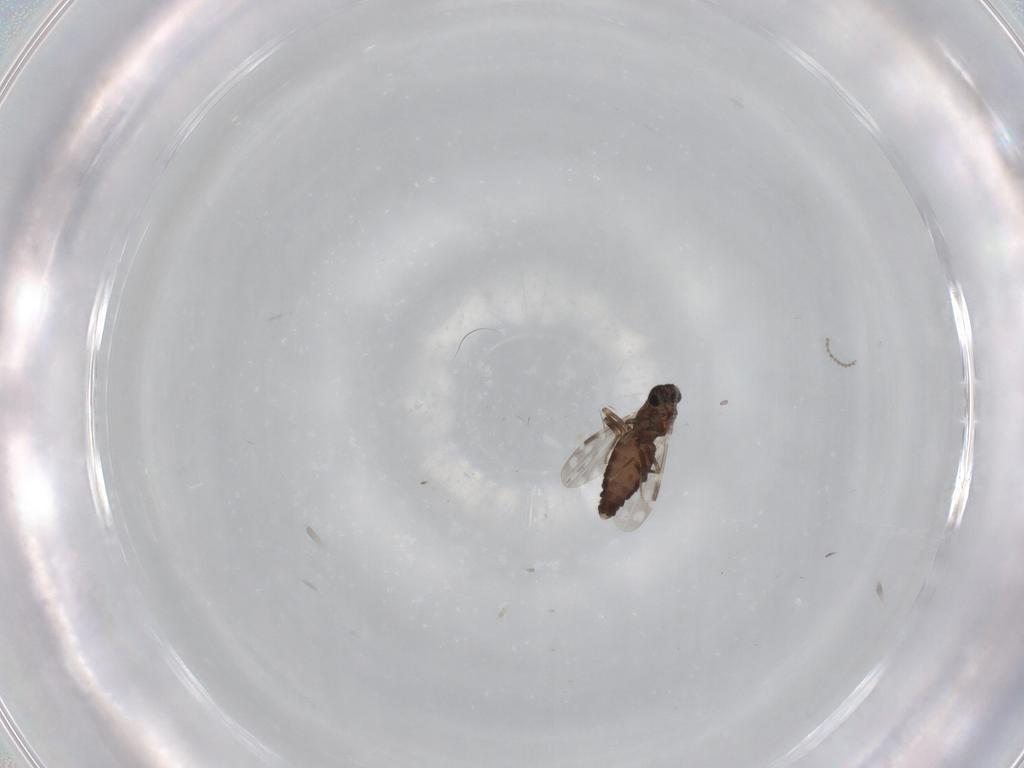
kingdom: Animalia
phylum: Arthropoda
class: Insecta
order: Diptera
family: Ceratopogonidae
